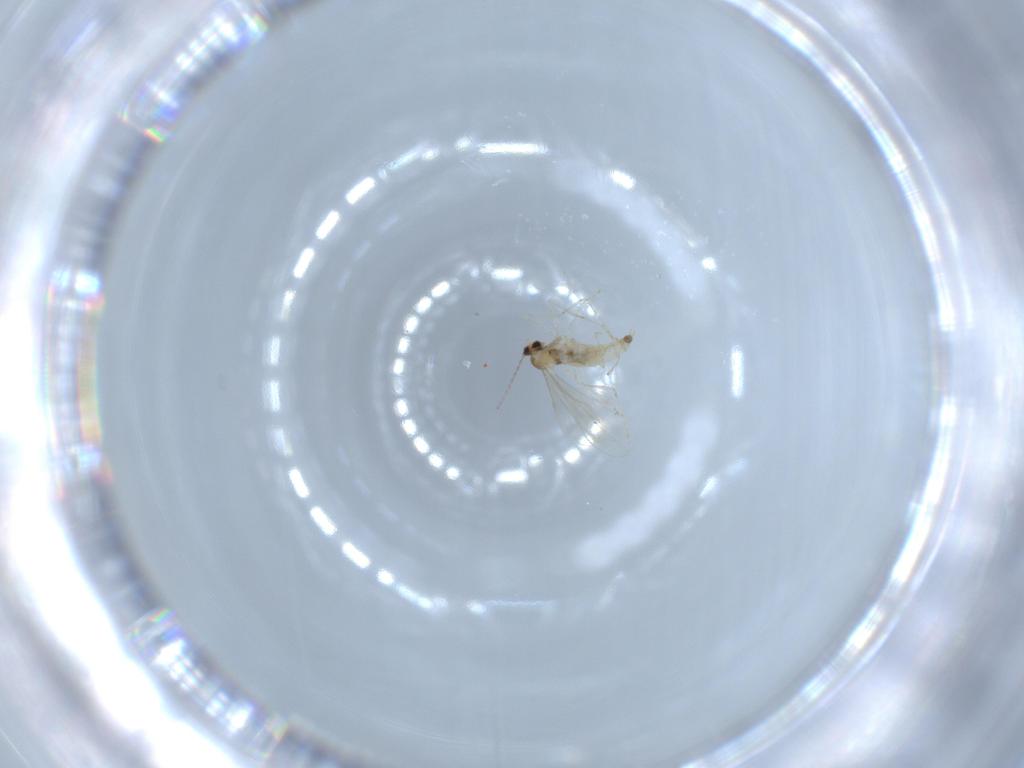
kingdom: Animalia
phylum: Arthropoda
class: Insecta
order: Diptera
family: Cecidomyiidae
